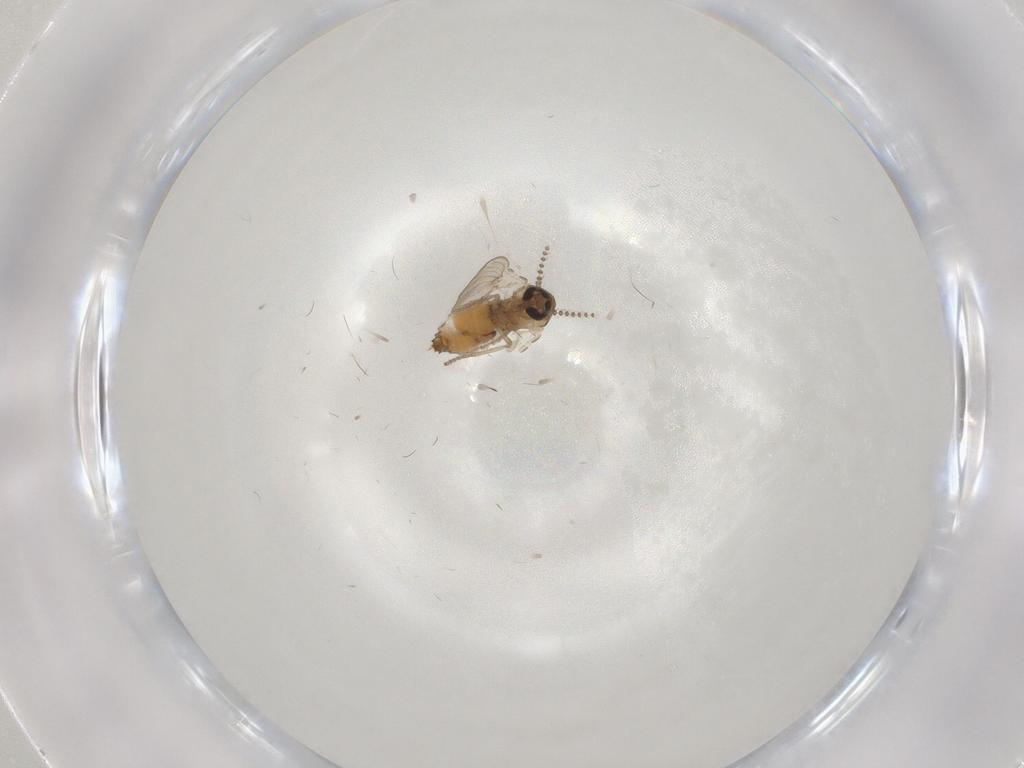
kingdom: Animalia
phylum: Arthropoda
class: Insecta
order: Diptera
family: Psychodidae
